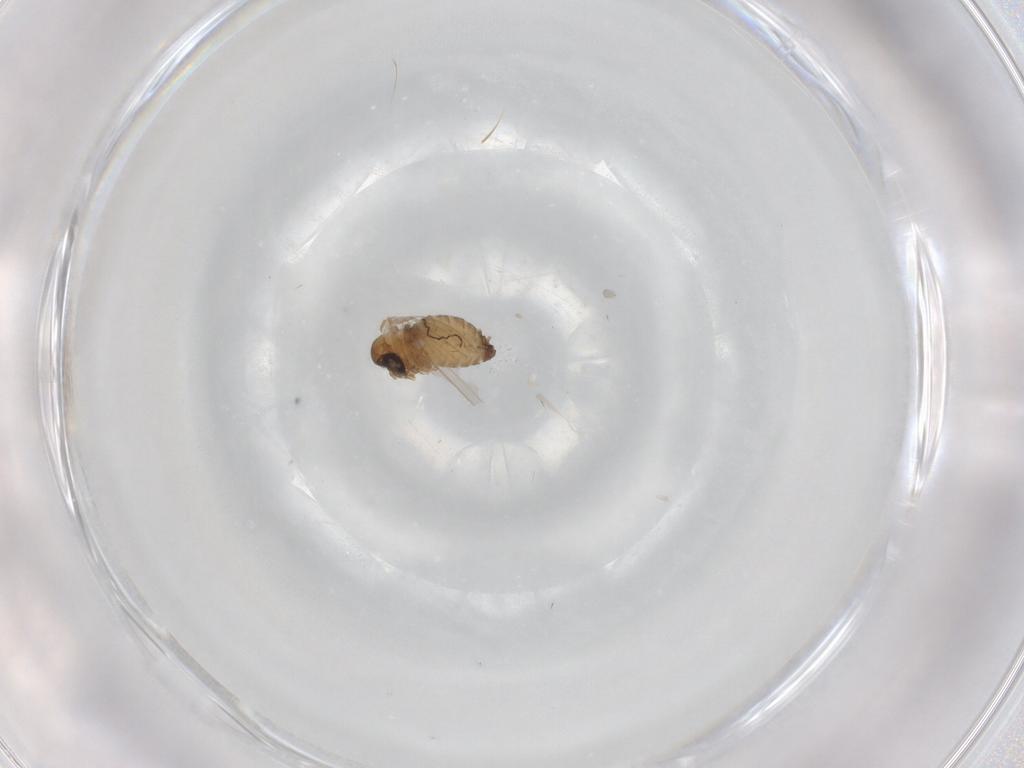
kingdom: Animalia
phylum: Arthropoda
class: Insecta
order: Diptera
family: Psychodidae
